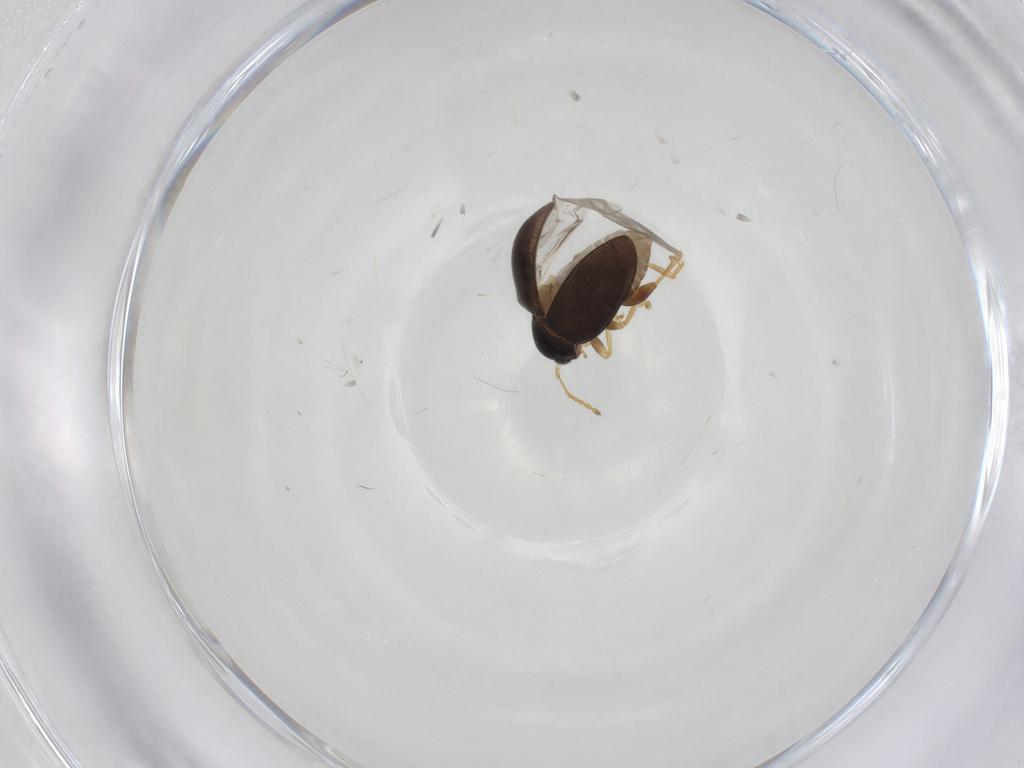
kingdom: Animalia
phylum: Arthropoda
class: Insecta
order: Coleoptera
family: Chrysomelidae
